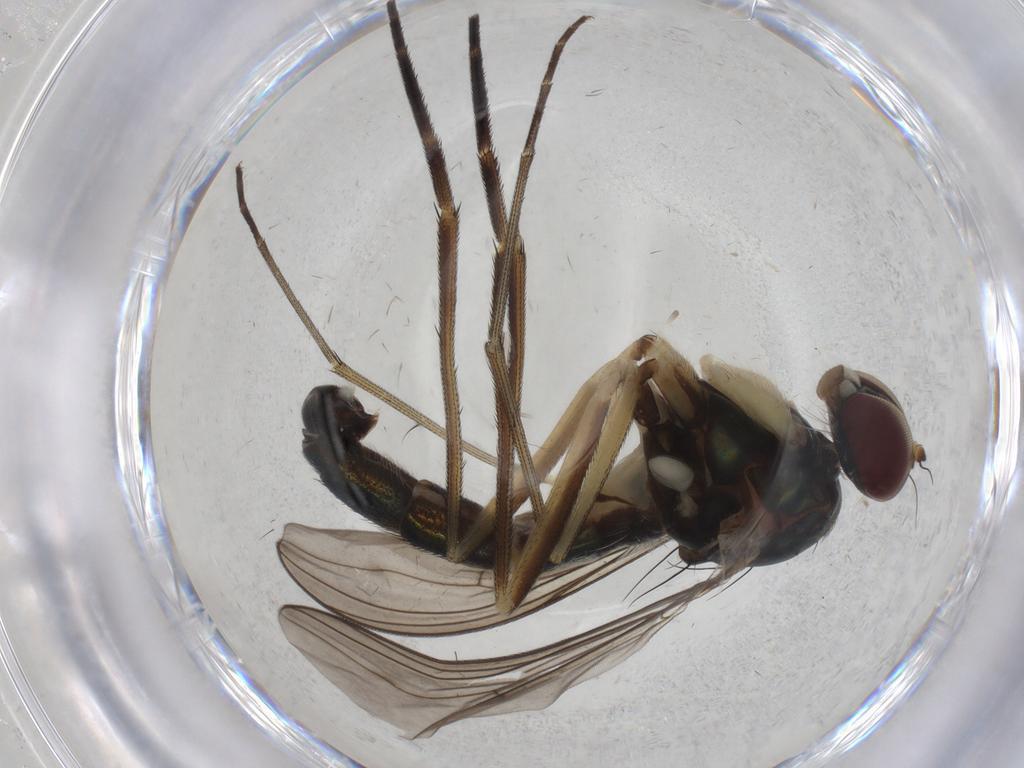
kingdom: Animalia
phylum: Arthropoda
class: Insecta
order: Diptera
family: Dolichopodidae
